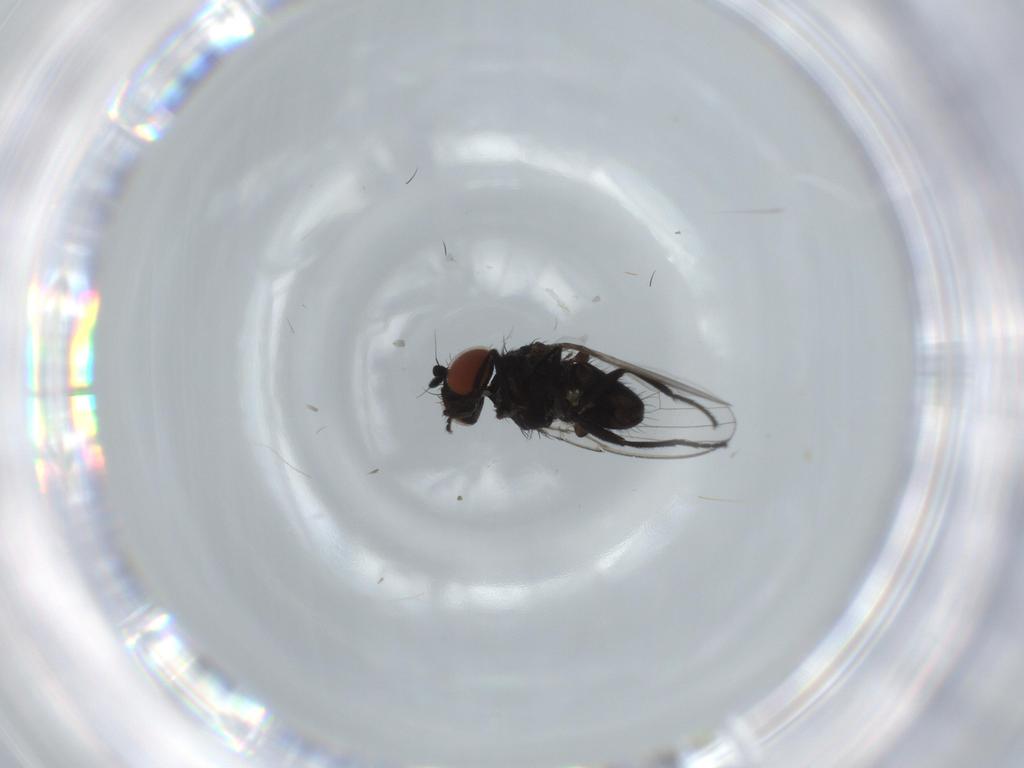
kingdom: Animalia
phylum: Arthropoda
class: Insecta
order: Diptera
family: Milichiidae
